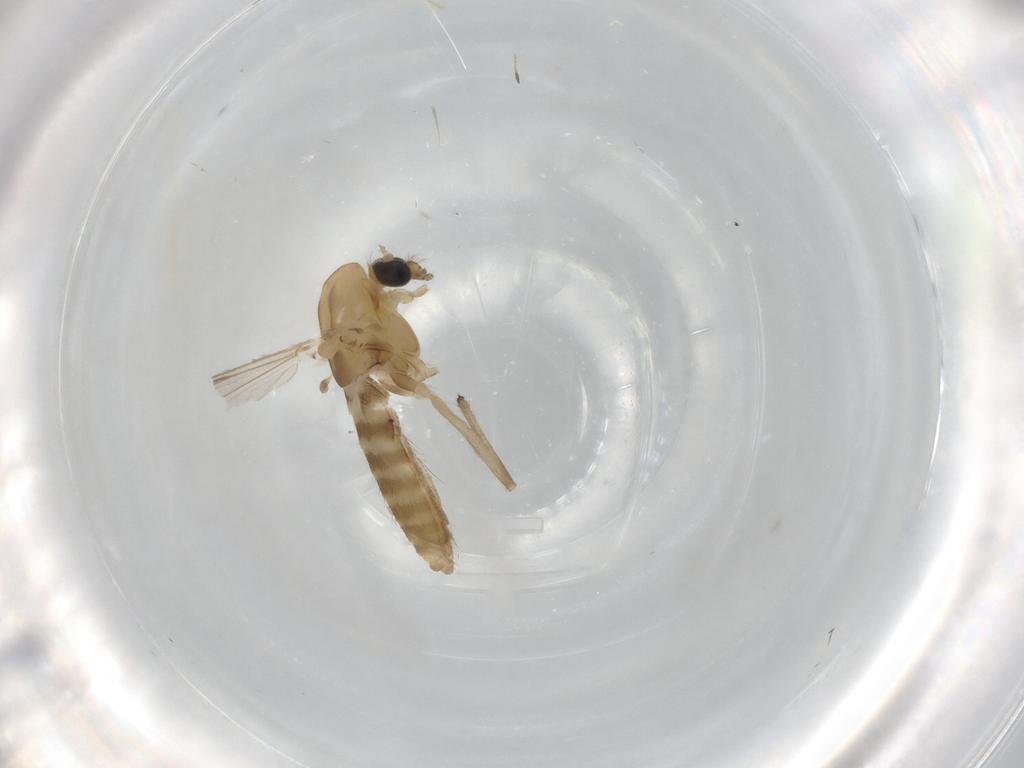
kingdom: Animalia
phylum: Arthropoda
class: Insecta
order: Diptera
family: Chironomidae
